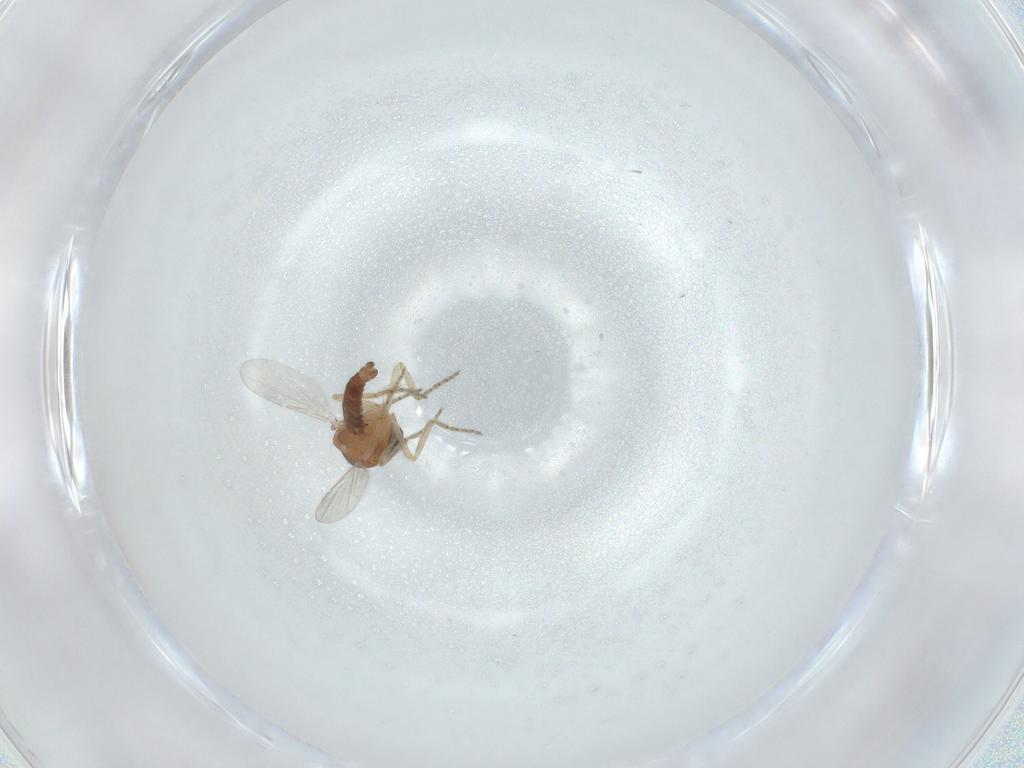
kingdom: Animalia
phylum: Arthropoda
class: Insecta
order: Diptera
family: Ceratopogonidae
